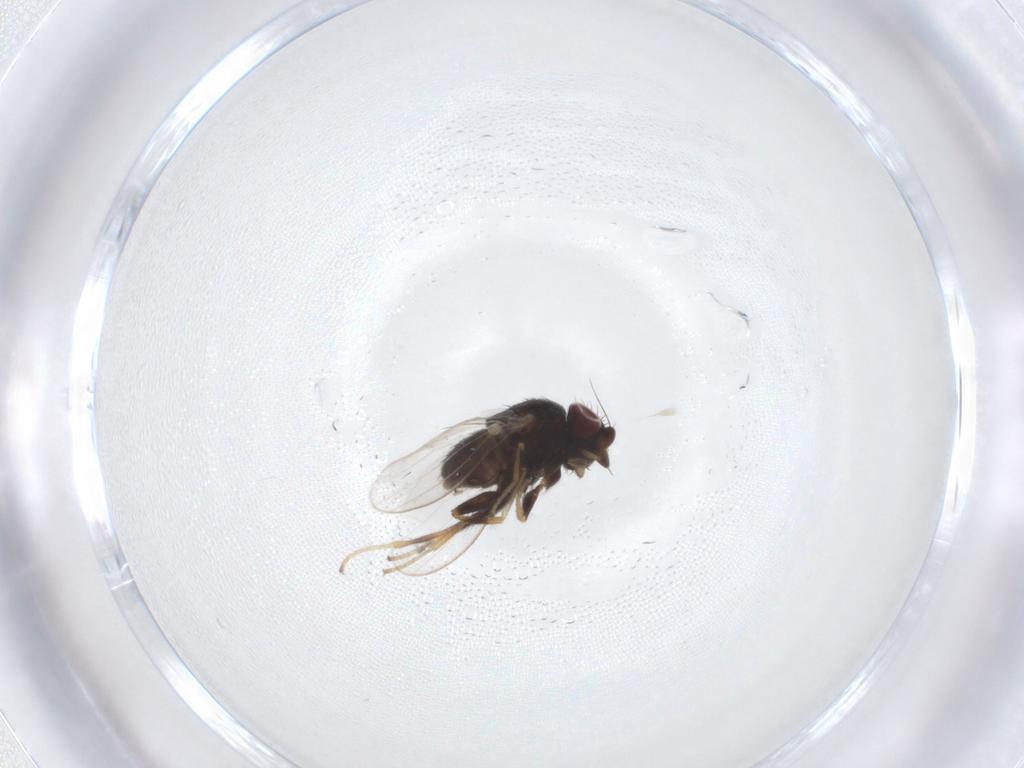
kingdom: Animalia
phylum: Arthropoda
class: Insecta
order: Diptera
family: Milichiidae
